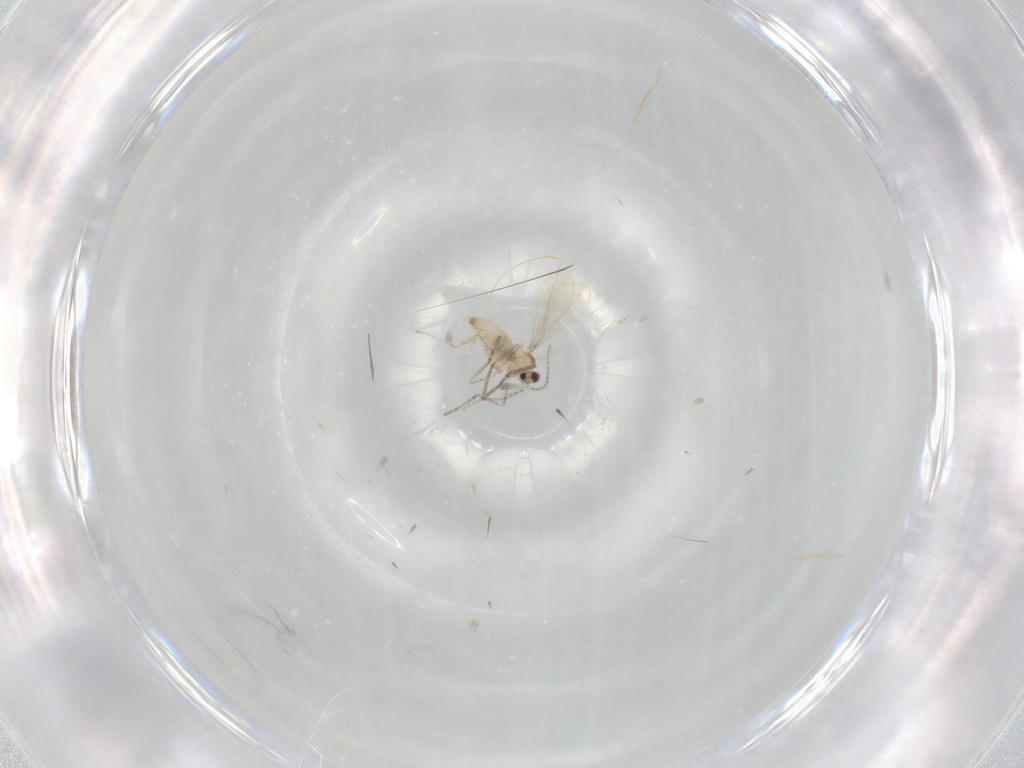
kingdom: Animalia
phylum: Arthropoda
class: Insecta
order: Diptera
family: Cecidomyiidae
